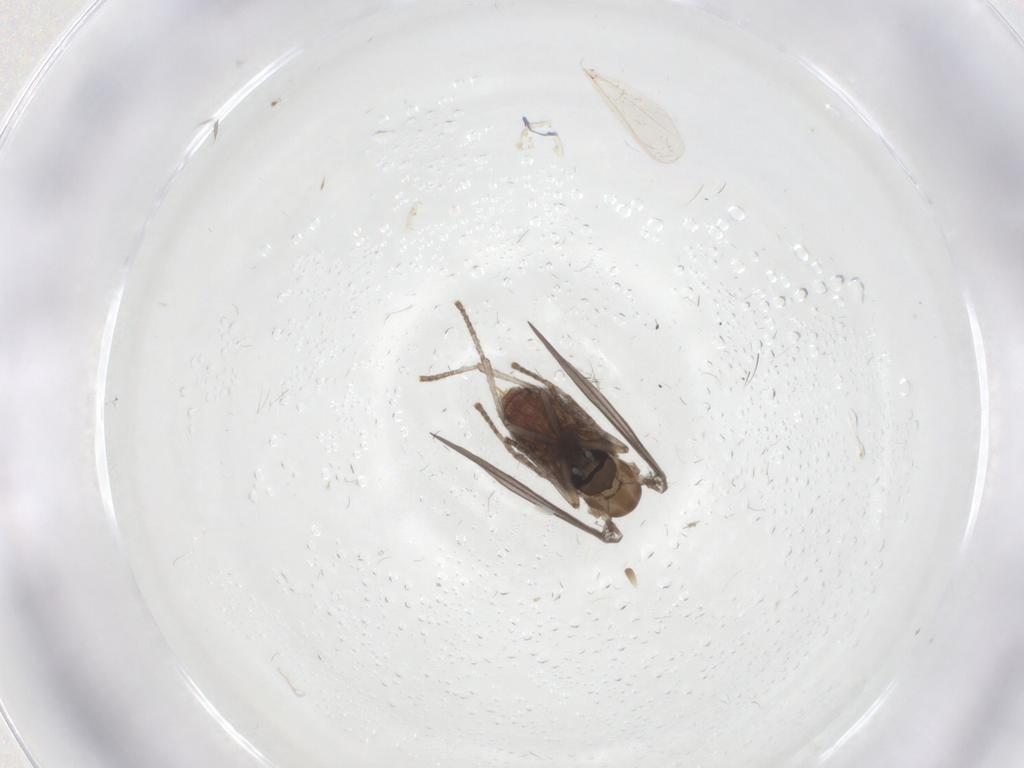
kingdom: Animalia
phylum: Arthropoda
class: Insecta
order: Diptera
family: Psychodidae
